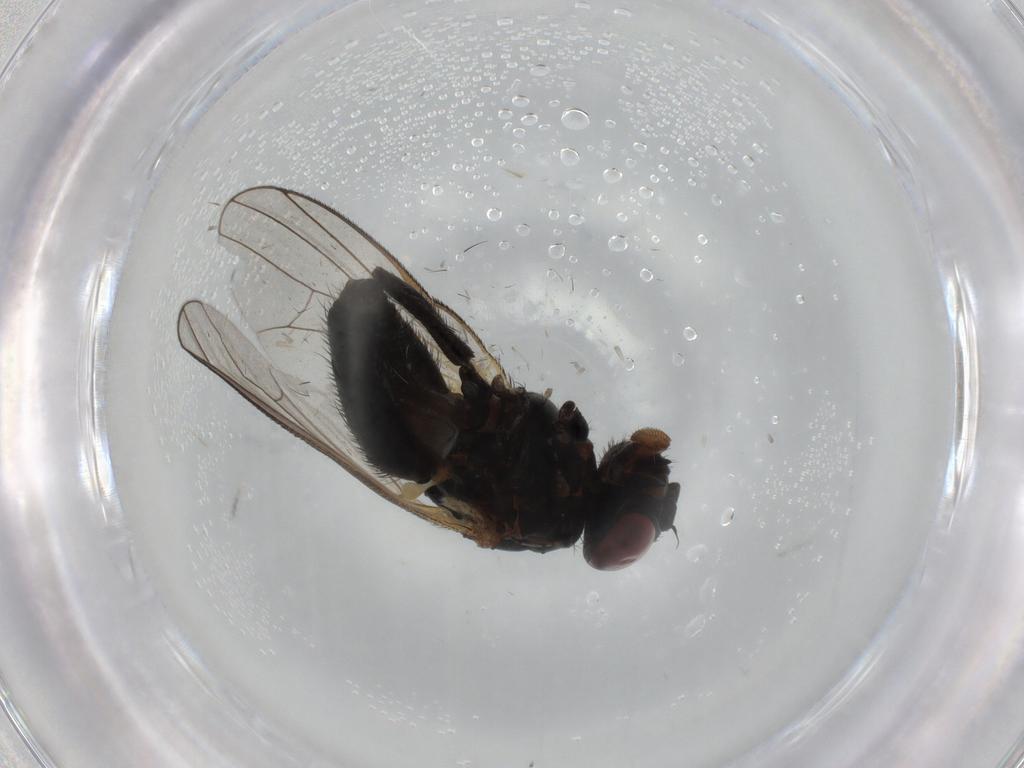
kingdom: Animalia
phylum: Arthropoda
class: Insecta
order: Diptera
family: Fannia
